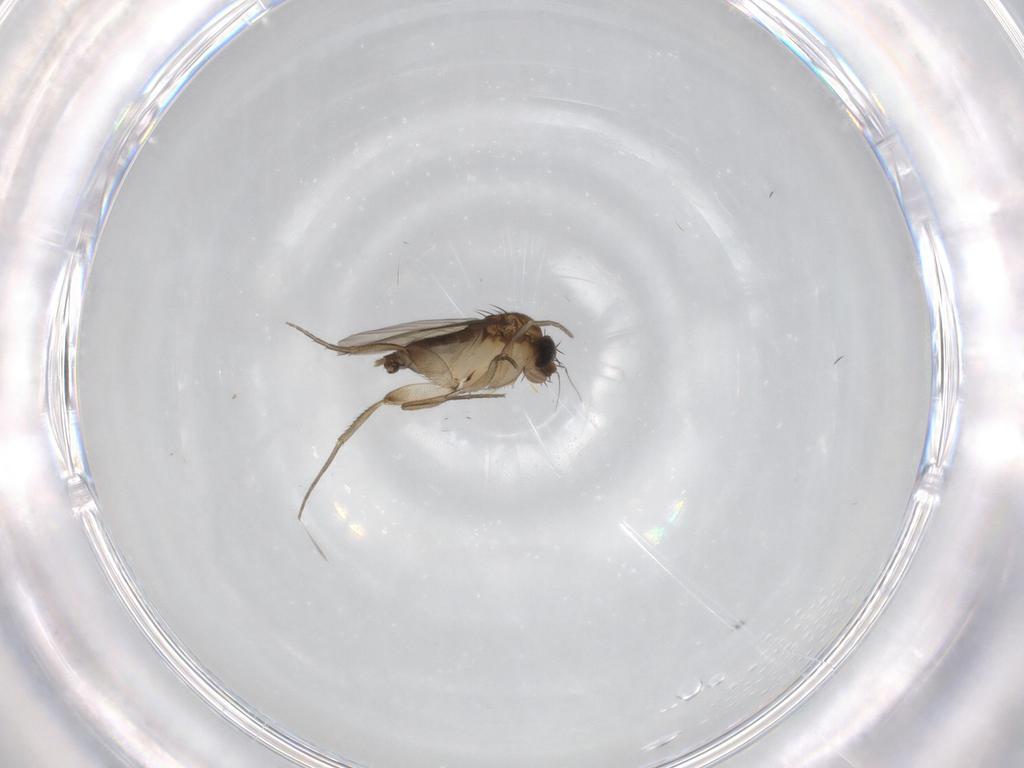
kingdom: Animalia
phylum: Arthropoda
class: Insecta
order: Diptera
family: Phoridae
